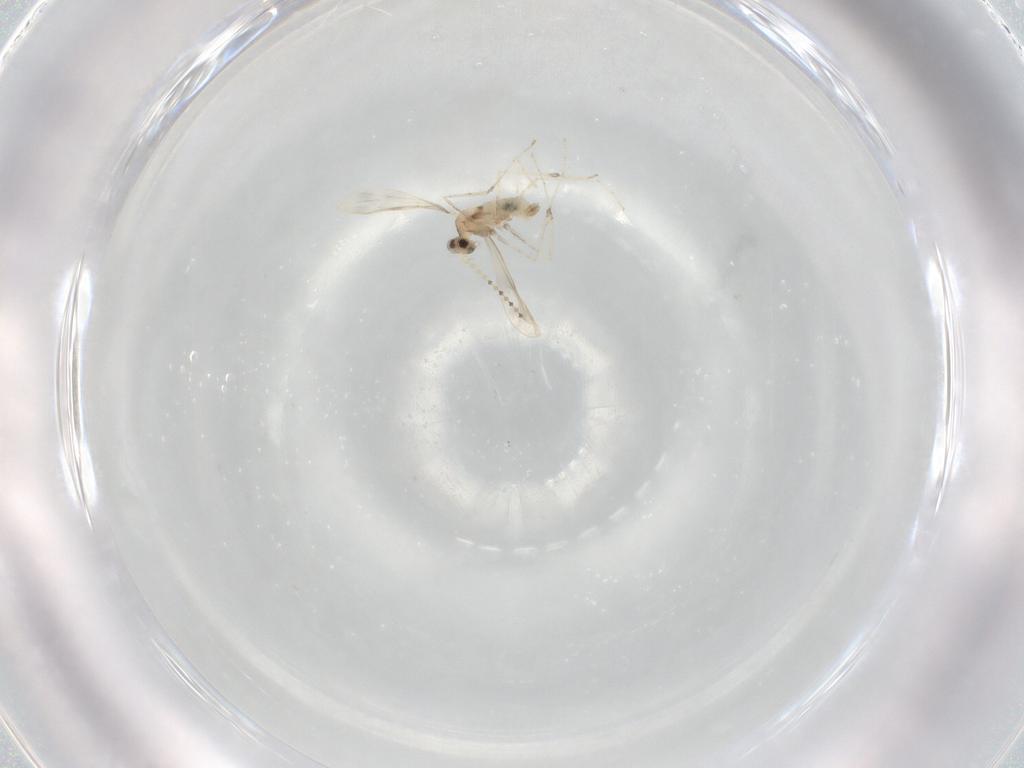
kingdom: Animalia
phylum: Arthropoda
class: Insecta
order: Diptera
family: Cecidomyiidae
